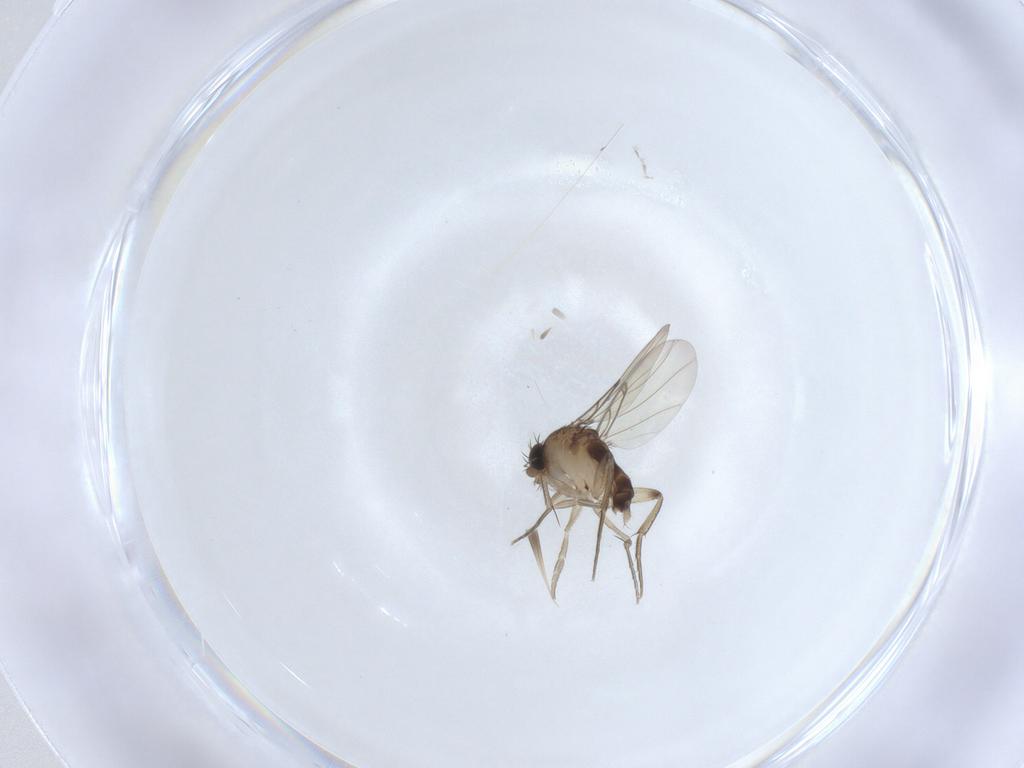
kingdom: Animalia
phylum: Arthropoda
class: Insecta
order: Diptera
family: Phoridae
